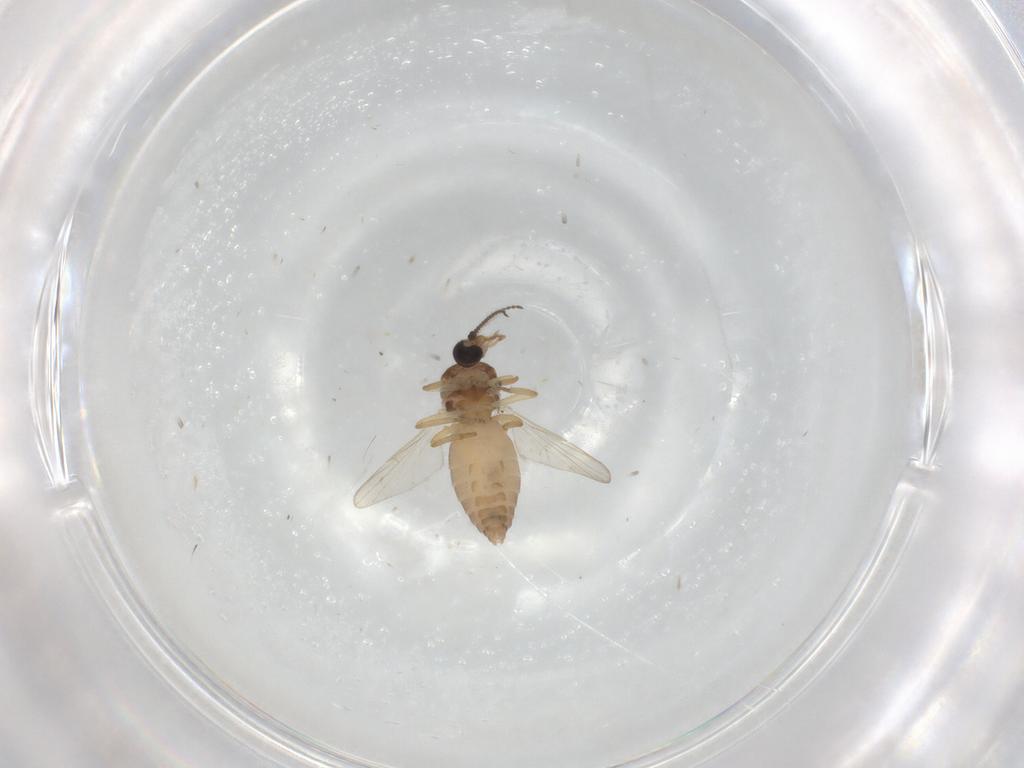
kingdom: Animalia
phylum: Arthropoda
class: Insecta
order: Diptera
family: Ceratopogonidae
